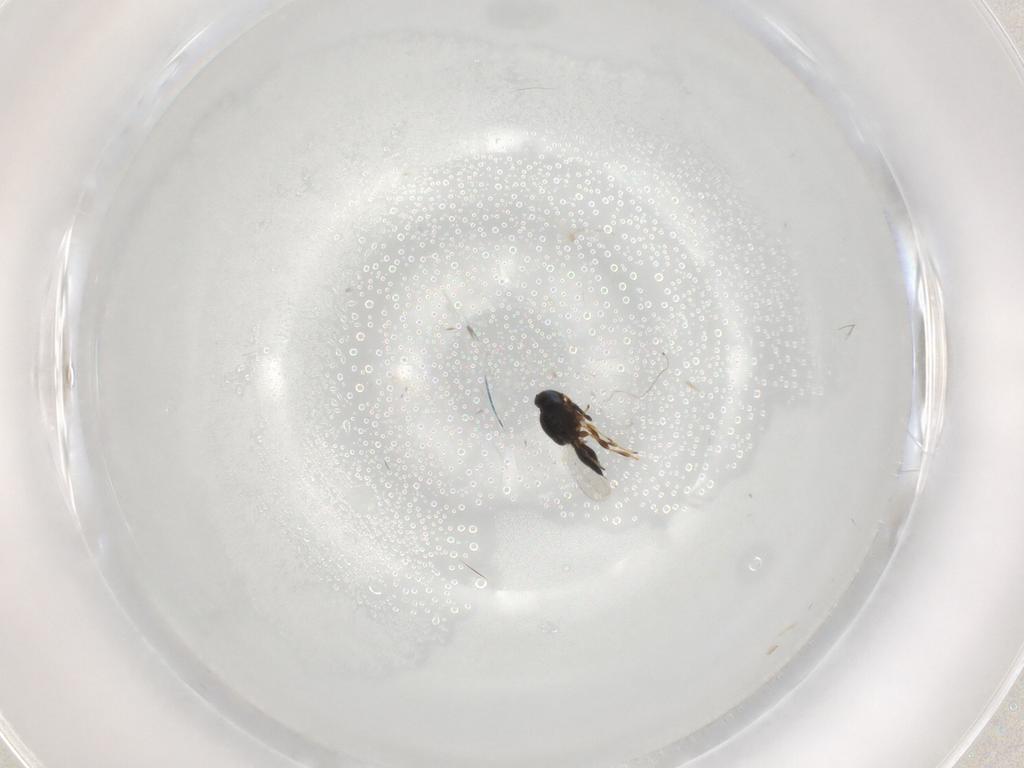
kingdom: Animalia
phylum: Arthropoda
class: Insecta
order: Hymenoptera
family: Platygastridae
